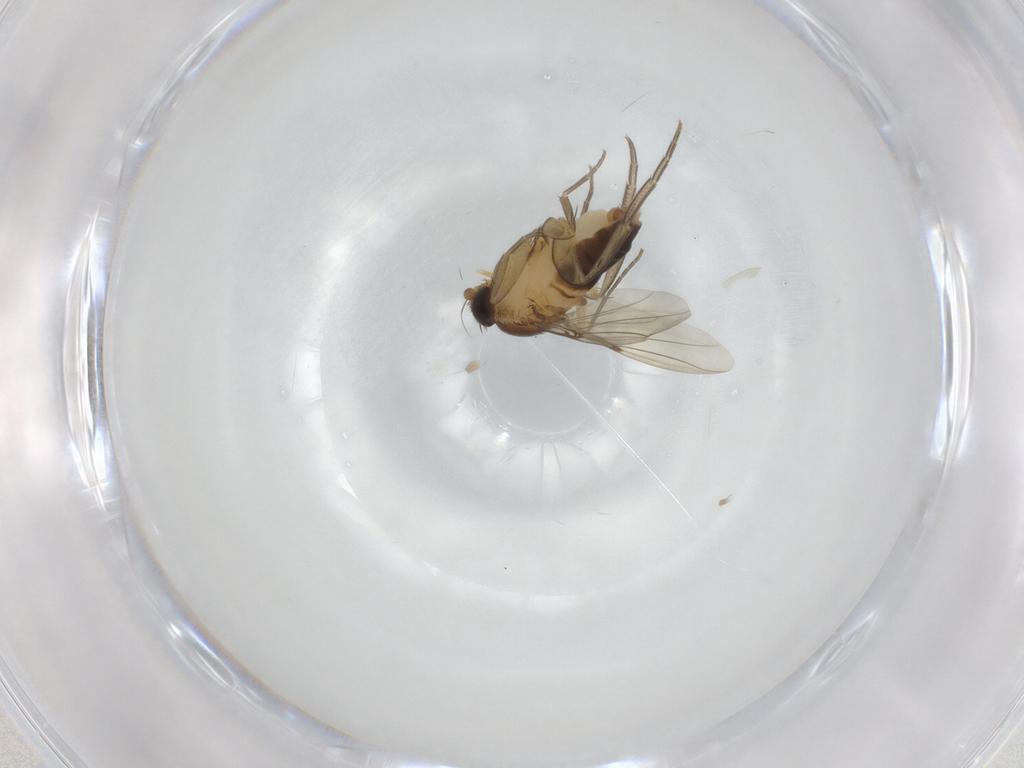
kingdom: Animalia
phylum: Arthropoda
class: Insecta
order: Diptera
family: Phoridae
